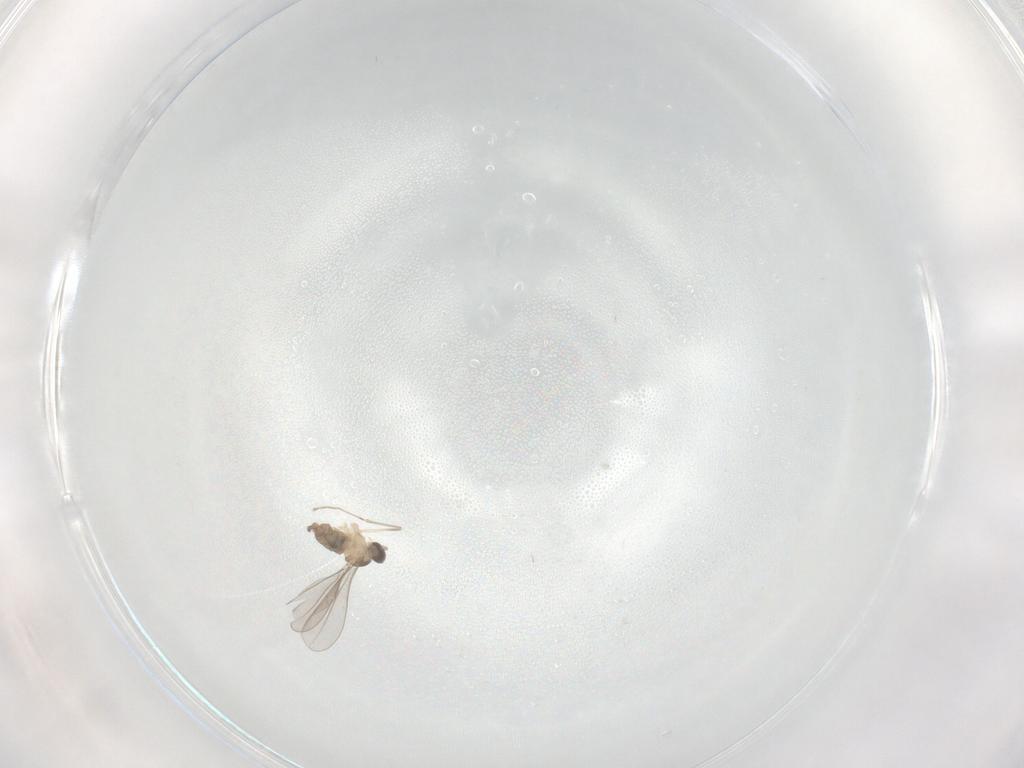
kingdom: Animalia
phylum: Arthropoda
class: Insecta
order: Diptera
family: Cecidomyiidae
